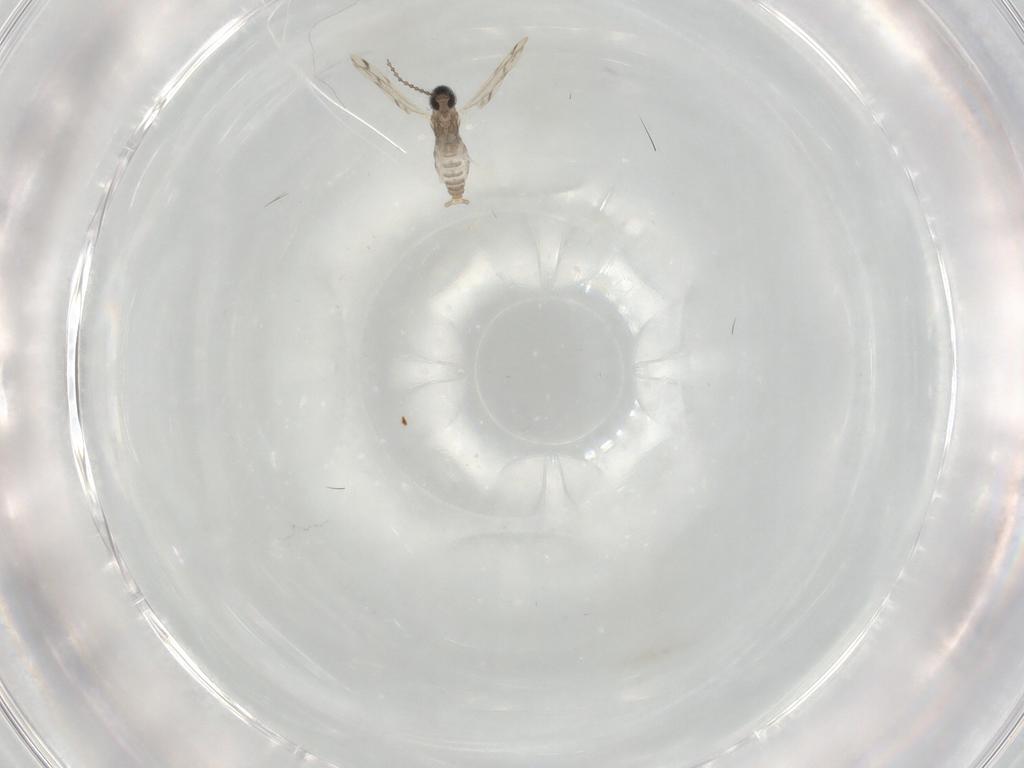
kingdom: Animalia
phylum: Arthropoda
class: Insecta
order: Diptera
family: Cecidomyiidae
